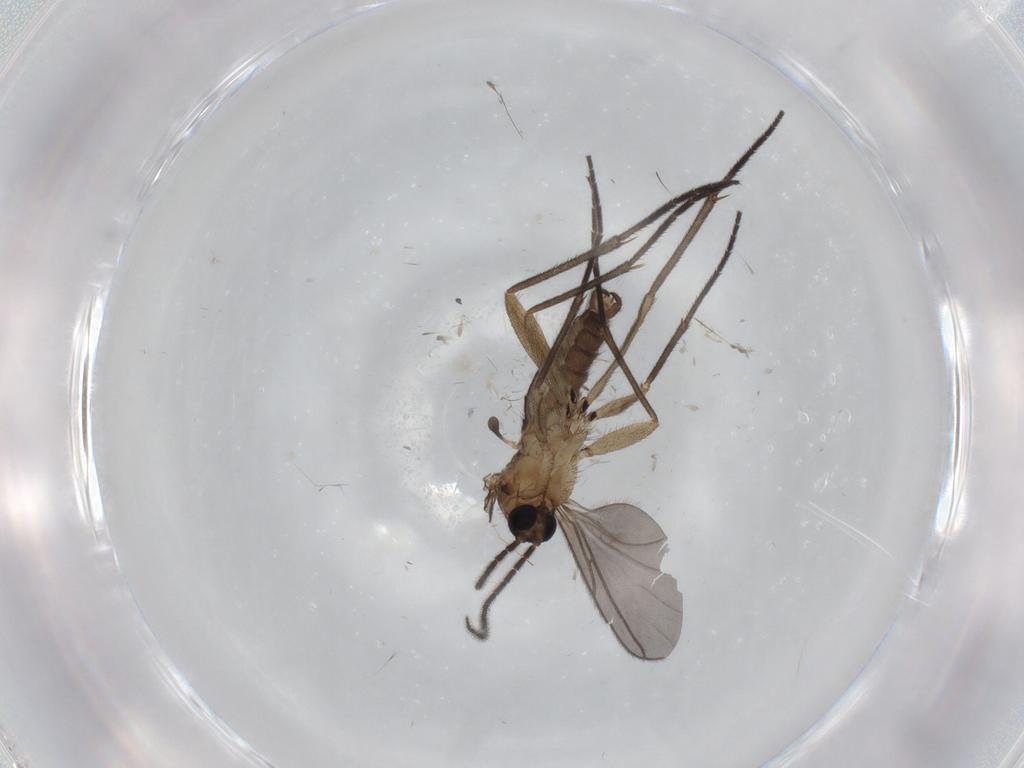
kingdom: Animalia
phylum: Arthropoda
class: Insecta
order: Diptera
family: Sciaridae
